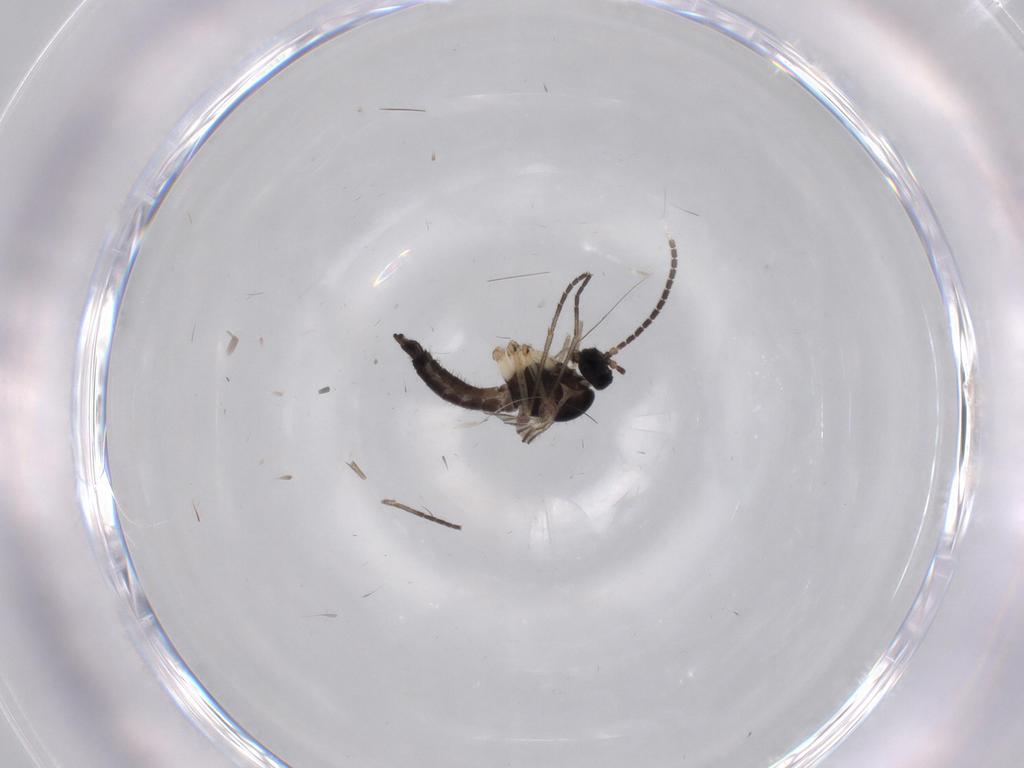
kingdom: Animalia
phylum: Arthropoda
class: Insecta
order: Diptera
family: Sciaridae
